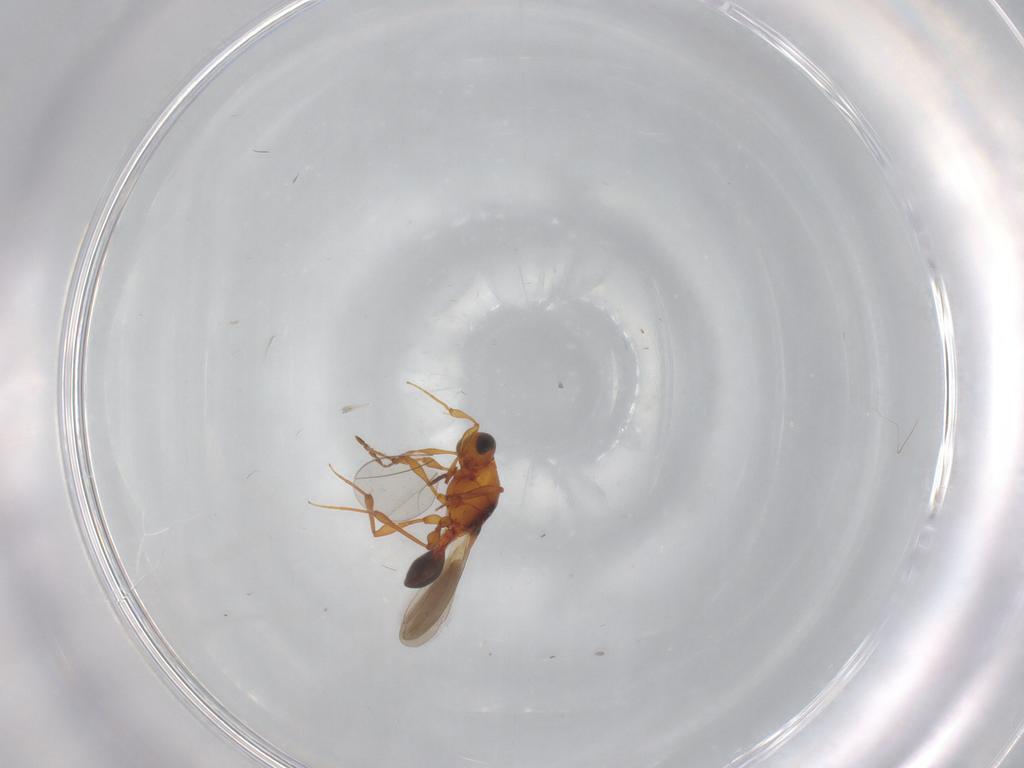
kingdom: Animalia
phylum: Arthropoda
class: Insecta
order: Hymenoptera
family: Platygastridae
